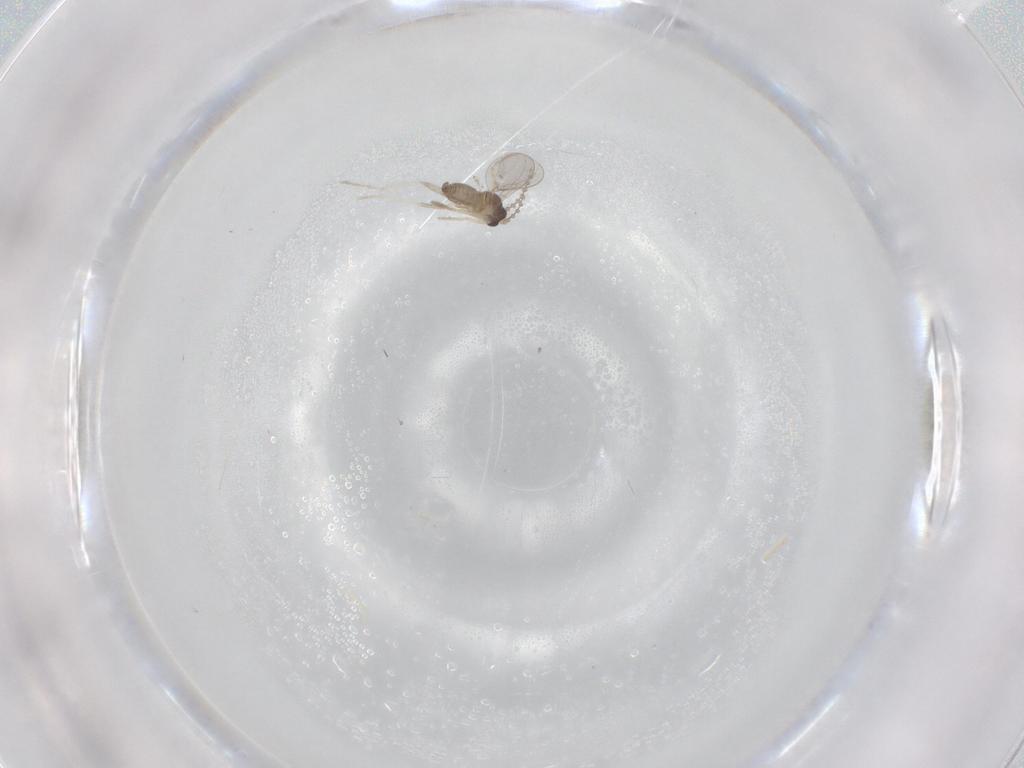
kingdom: Animalia
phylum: Arthropoda
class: Insecta
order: Diptera
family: Cecidomyiidae
